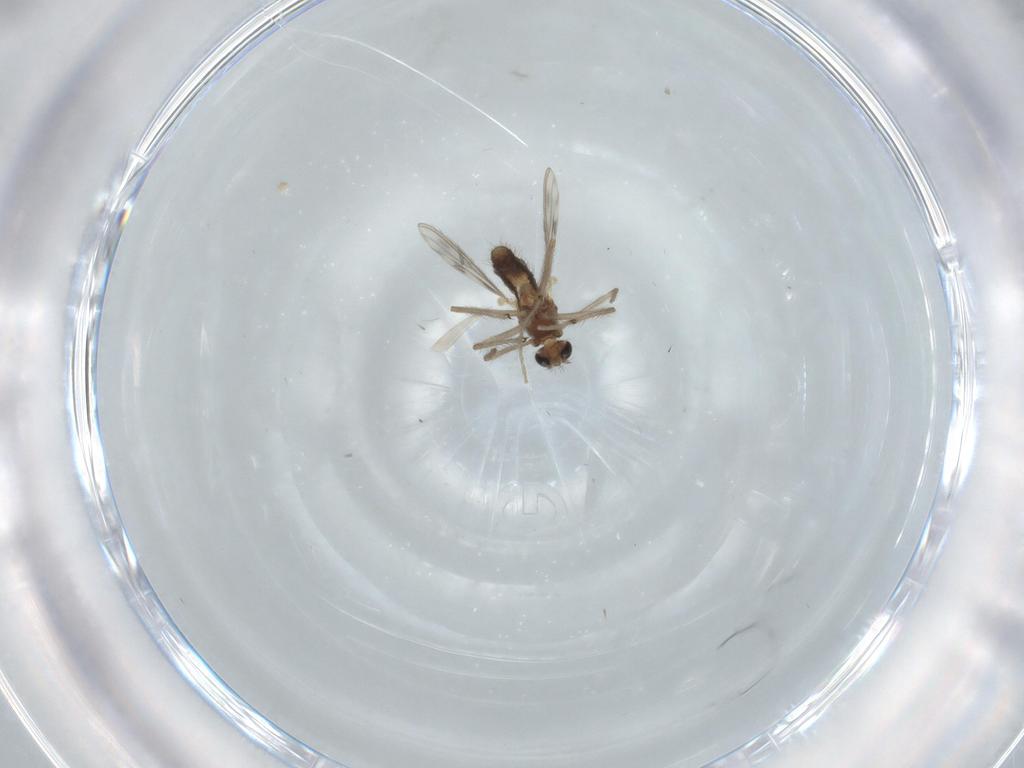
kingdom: Animalia
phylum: Arthropoda
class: Insecta
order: Diptera
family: Chironomidae
